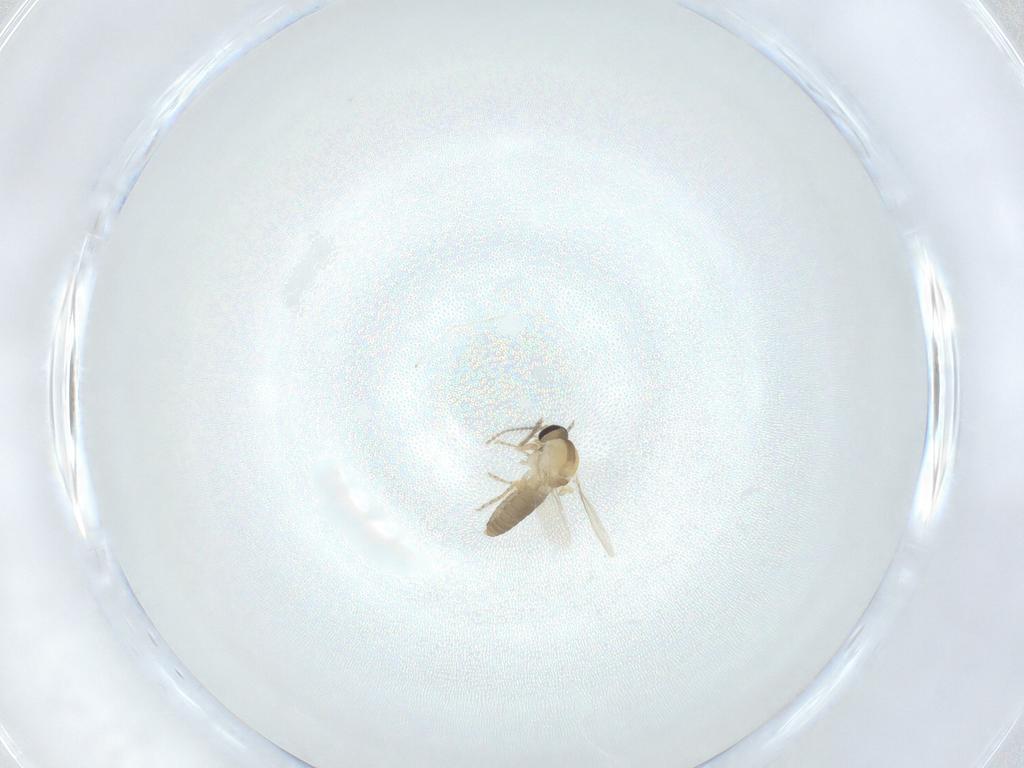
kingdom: Animalia
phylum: Arthropoda
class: Insecta
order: Diptera
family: Ceratopogonidae
